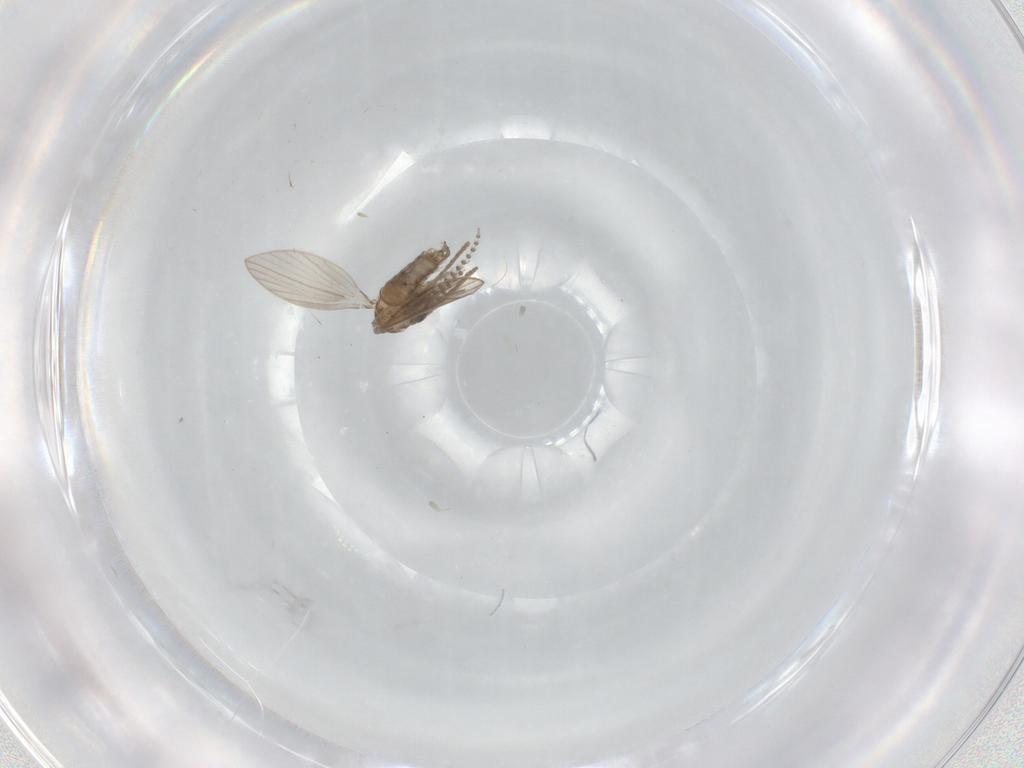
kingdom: Animalia
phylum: Arthropoda
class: Insecta
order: Diptera
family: Psychodidae
